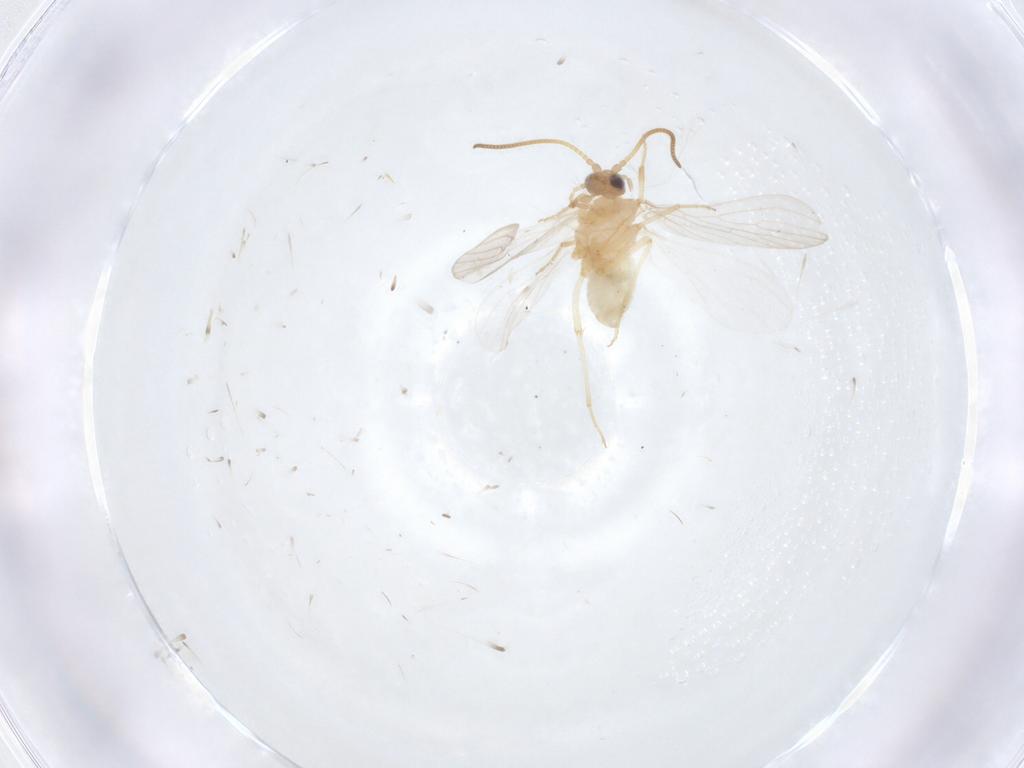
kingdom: Animalia
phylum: Arthropoda
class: Insecta
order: Neuroptera
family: Coniopterygidae
